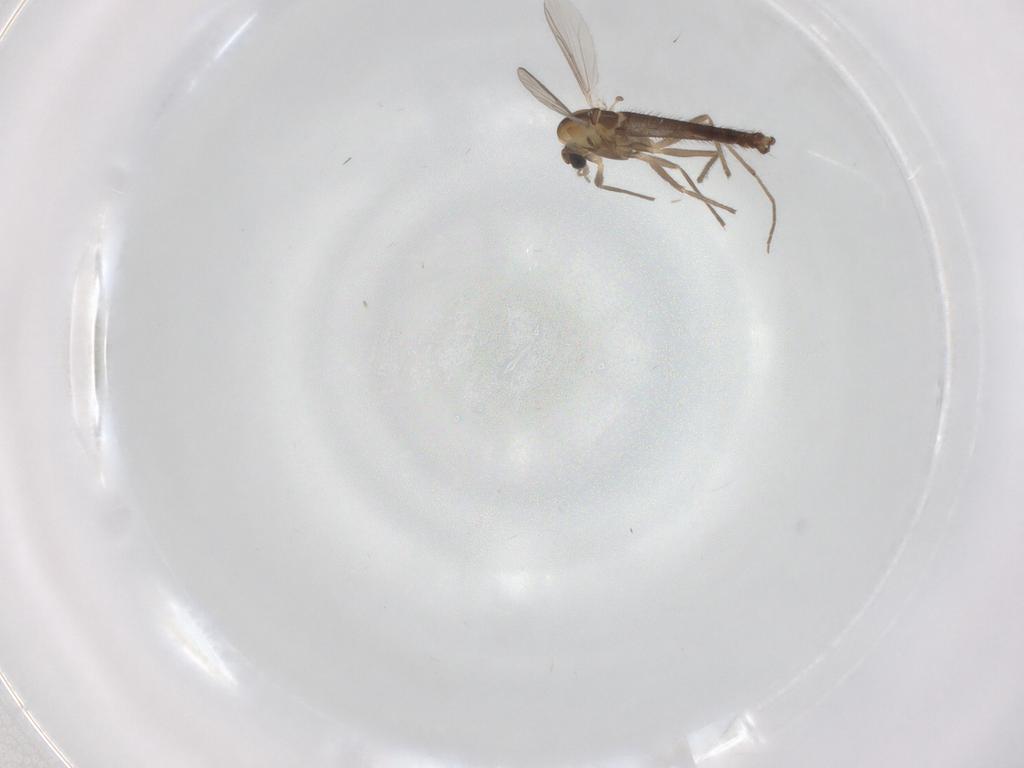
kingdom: Animalia
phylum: Arthropoda
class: Insecta
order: Diptera
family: Chironomidae
